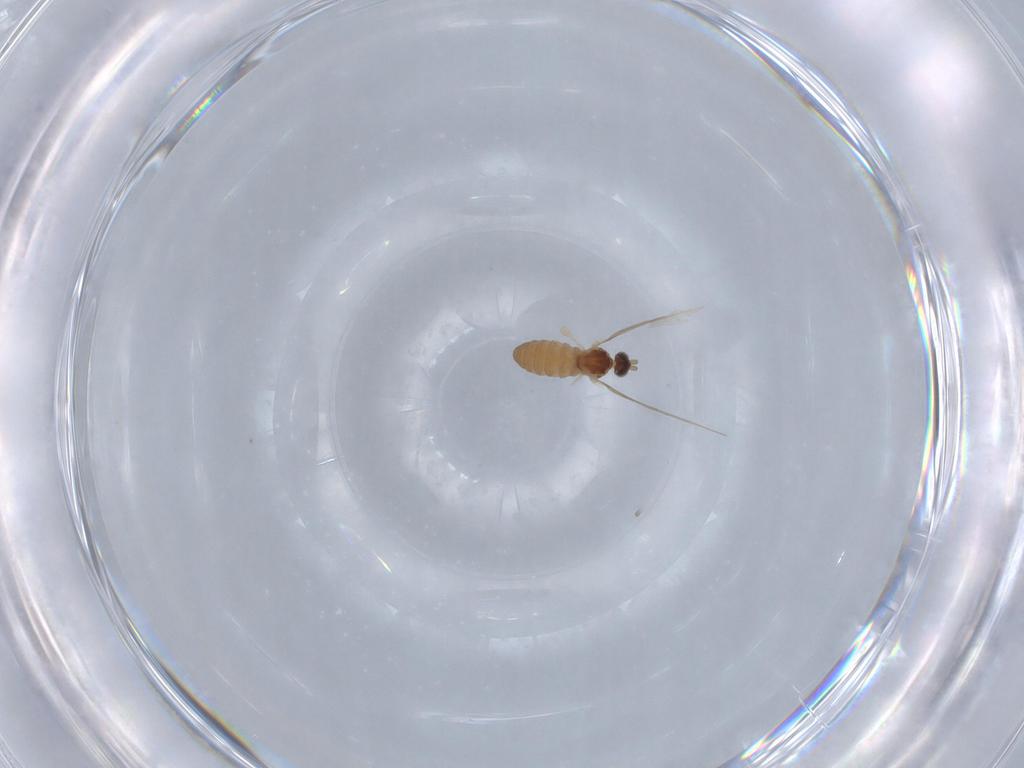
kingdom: Animalia
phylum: Arthropoda
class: Insecta
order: Diptera
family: Cecidomyiidae
